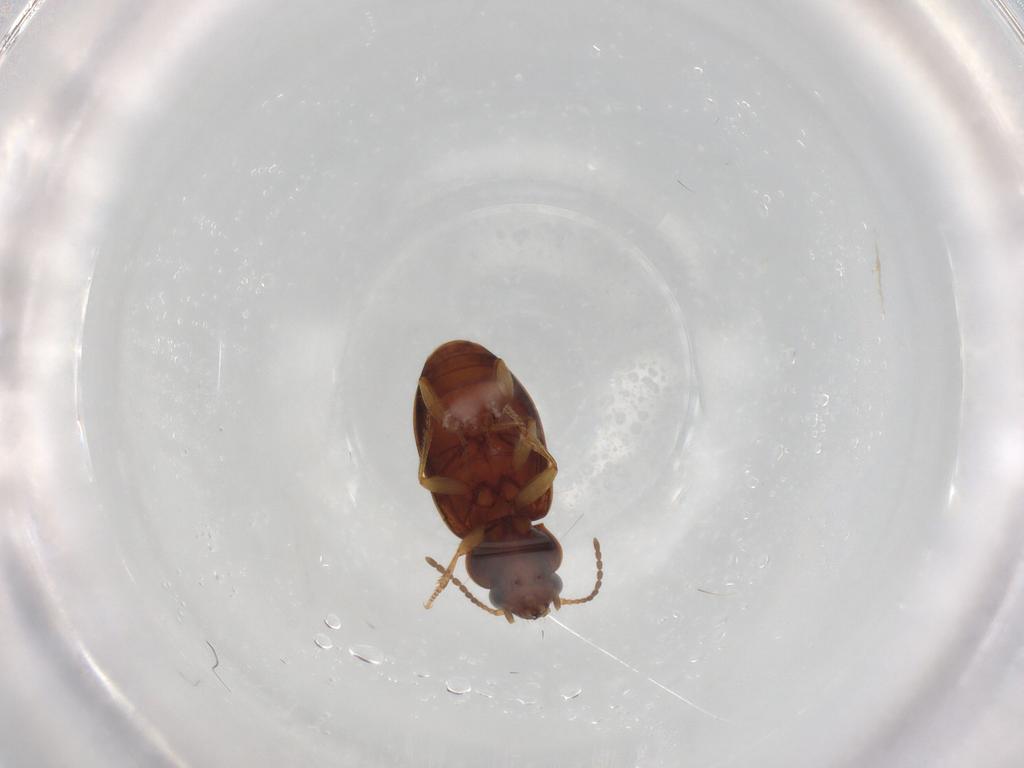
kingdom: Animalia
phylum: Arthropoda
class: Insecta
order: Coleoptera
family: Carabidae
